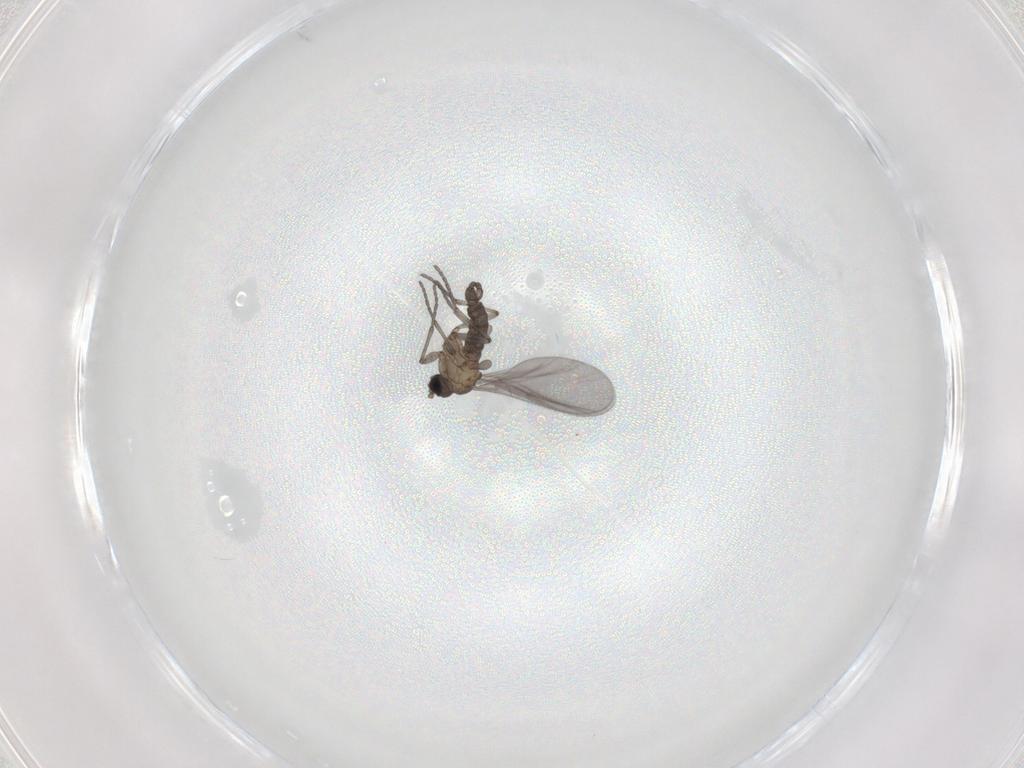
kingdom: Animalia
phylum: Arthropoda
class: Insecta
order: Diptera
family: Sciaridae
